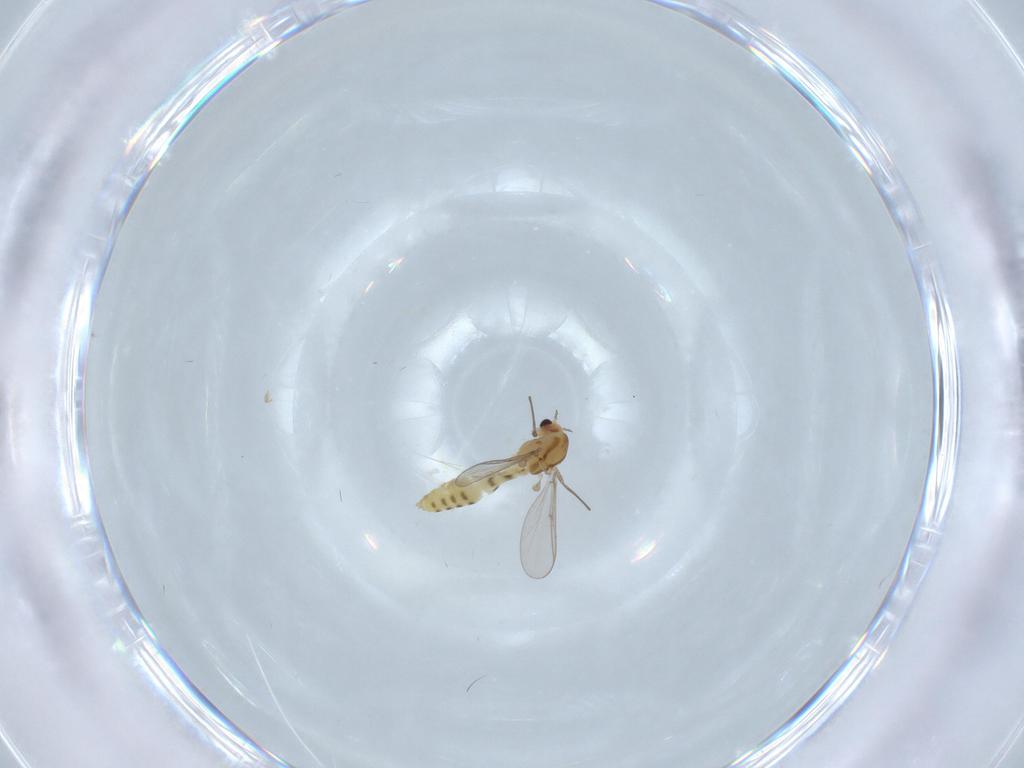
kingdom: Animalia
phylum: Arthropoda
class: Insecta
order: Diptera
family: Chironomidae
